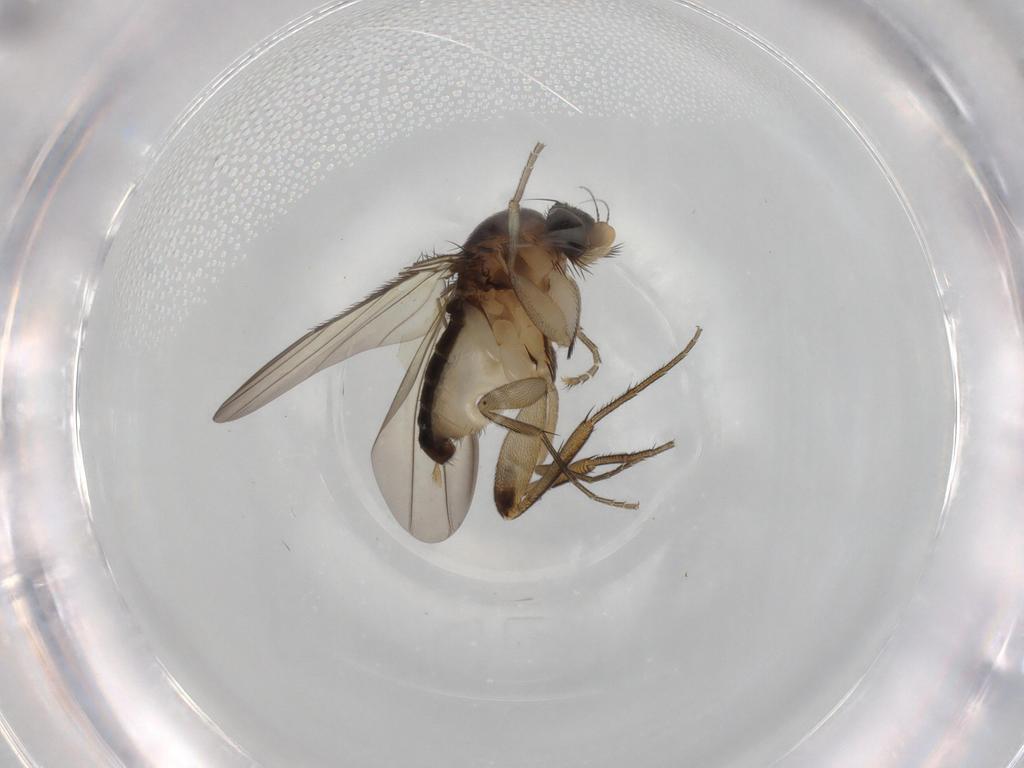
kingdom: Animalia
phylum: Arthropoda
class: Insecta
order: Diptera
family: Phoridae
